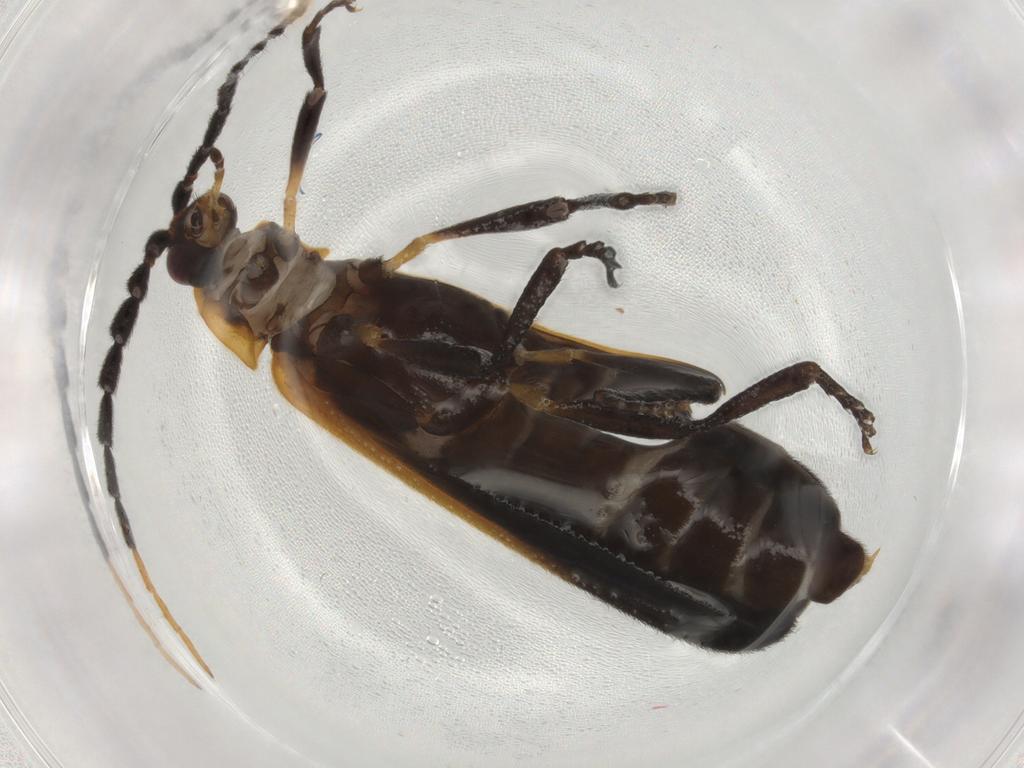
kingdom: Animalia
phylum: Arthropoda
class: Insecta
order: Coleoptera
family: Lycidae
